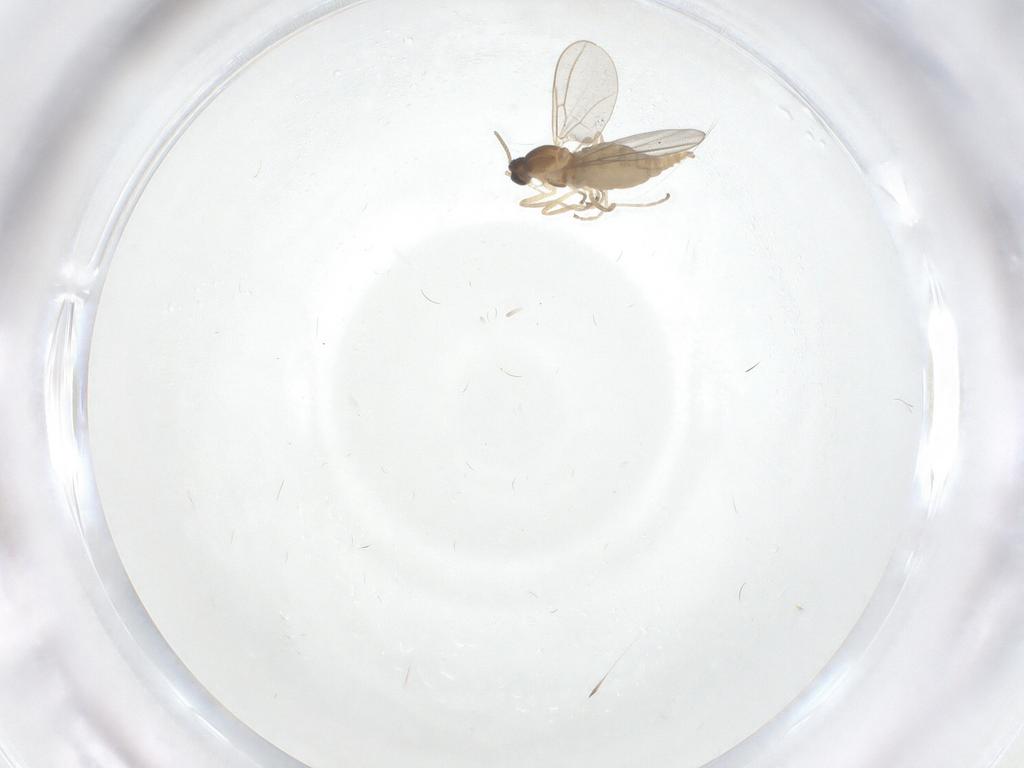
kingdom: Animalia
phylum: Arthropoda
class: Insecta
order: Diptera
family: Cecidomyiidae
